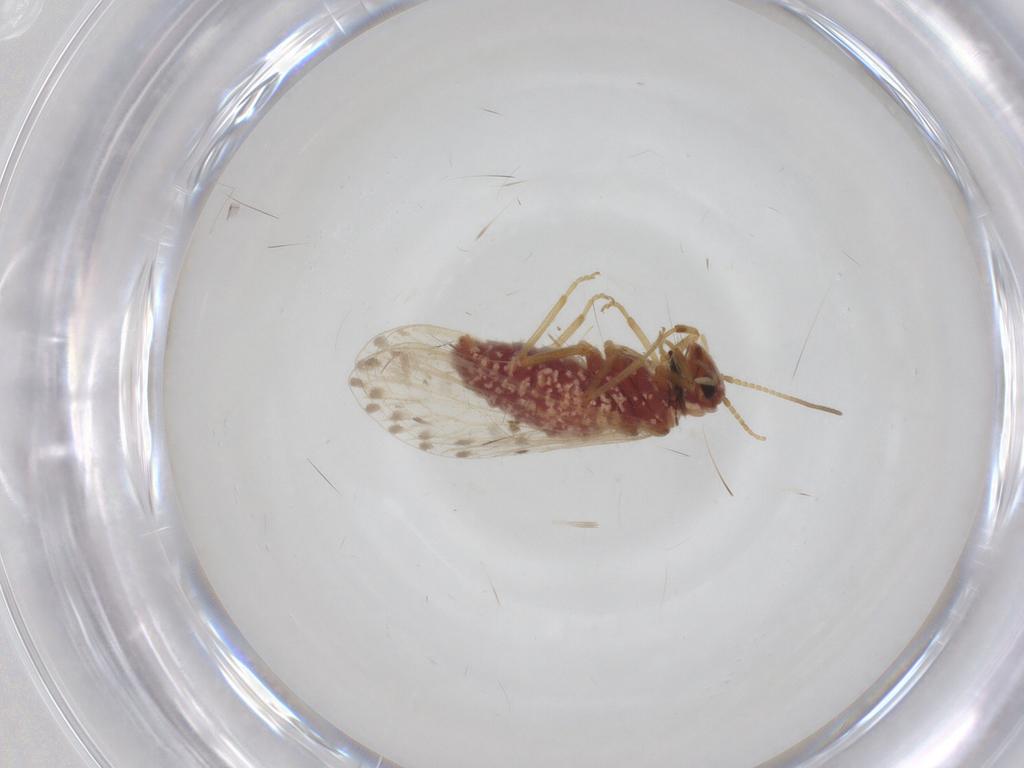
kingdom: Animalia
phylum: Arthropoda
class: Insecta
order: Neuroptera
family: Coniopterygidae
